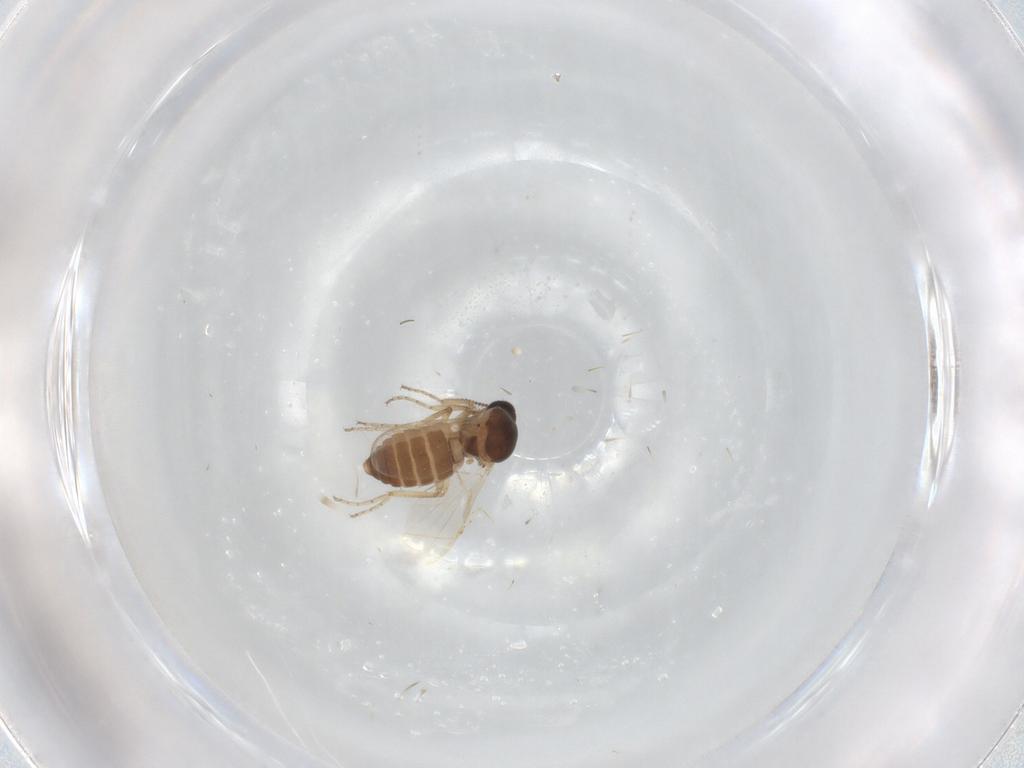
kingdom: Animalia
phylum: Arthropoda
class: Insecta
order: Diptera
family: Ceratopogonidae
